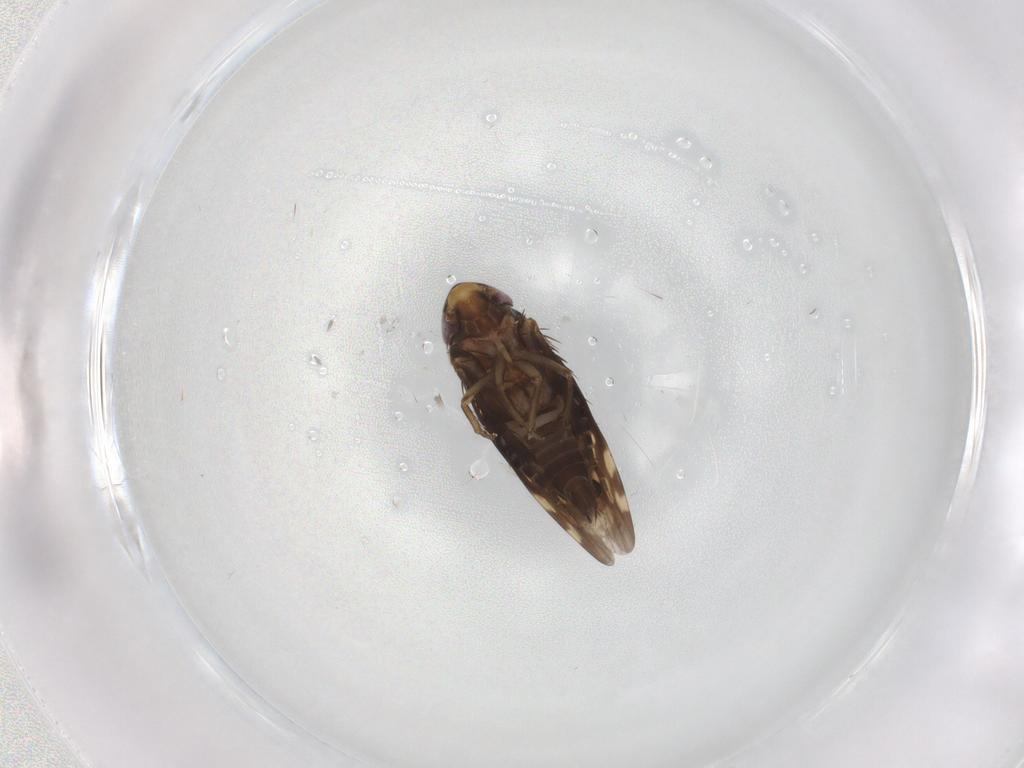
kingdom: Animalia
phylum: Arthropoda
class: Insecta
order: Hemiptera
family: Cicadellidae
